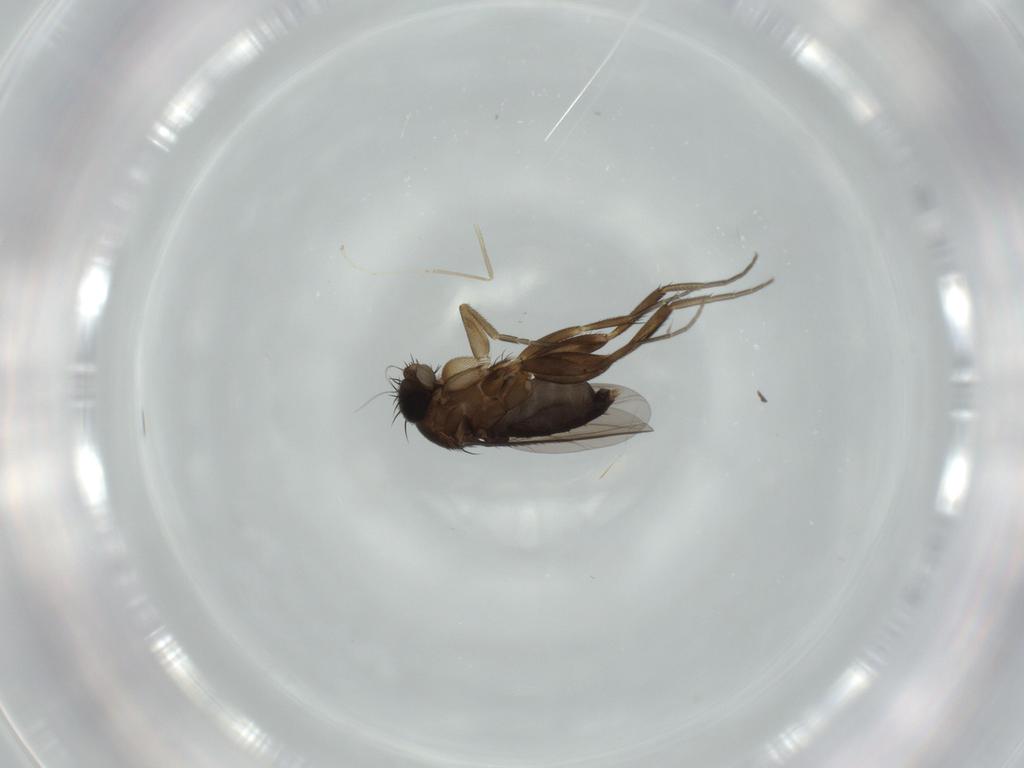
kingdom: Animalia
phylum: Arthropoda
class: Insecta
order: Diptera
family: Phoridae
